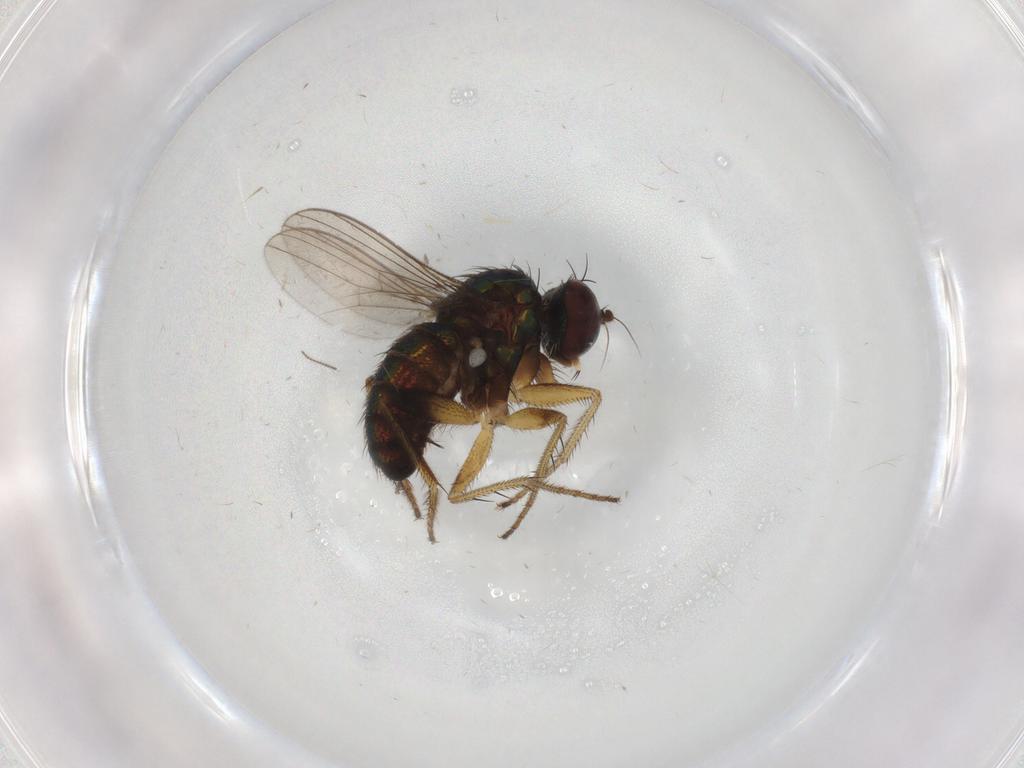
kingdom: Animalia
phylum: Arthropoda
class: Insecta
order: Diptera
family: Dolichopodidae
